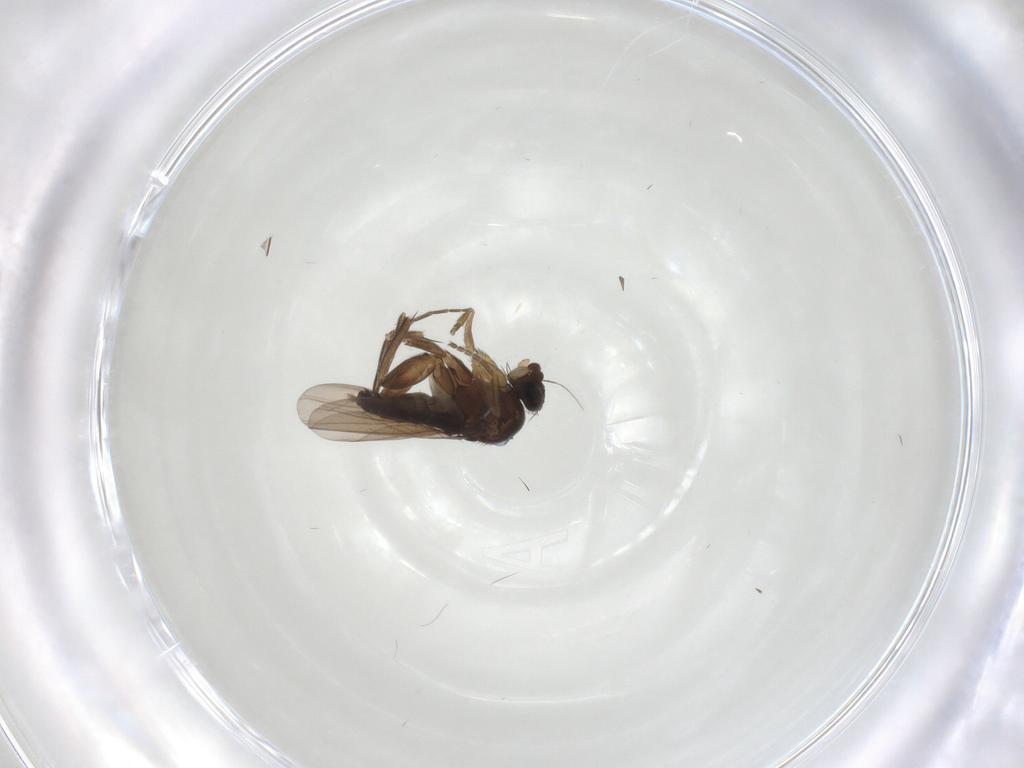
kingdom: Animalia
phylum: Arthropoda
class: Insecta
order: Diptera
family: Phoridae
